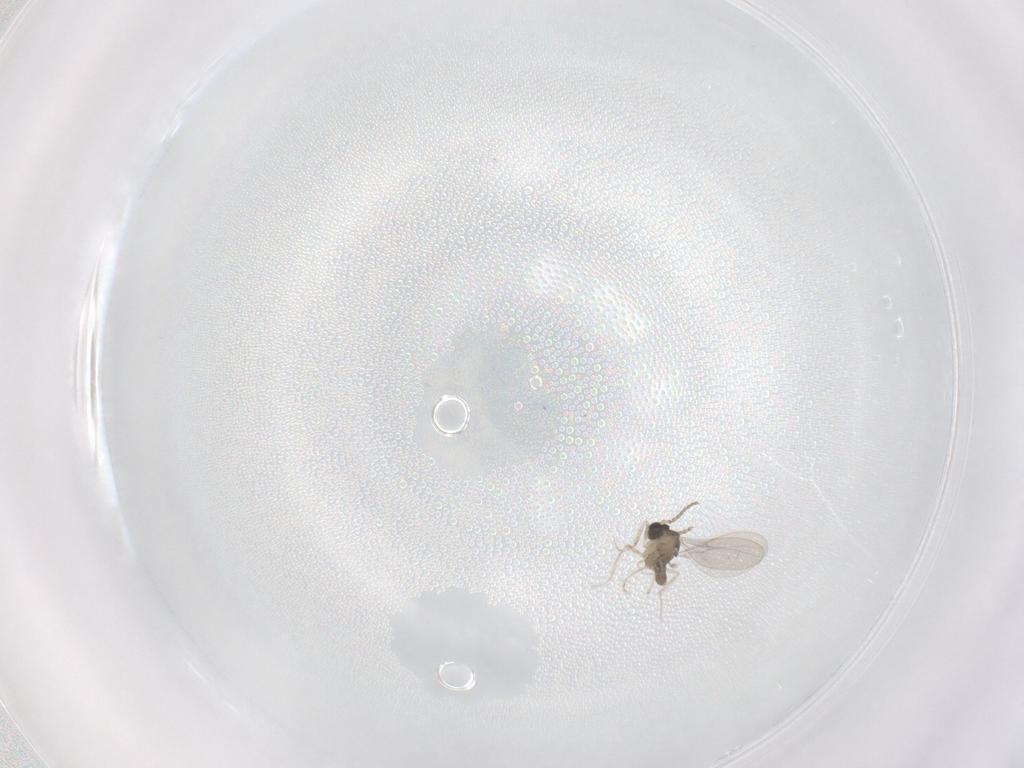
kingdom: Animalia
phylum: Arthropoda
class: Insecta
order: Diptera
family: Cecidomyiidae
